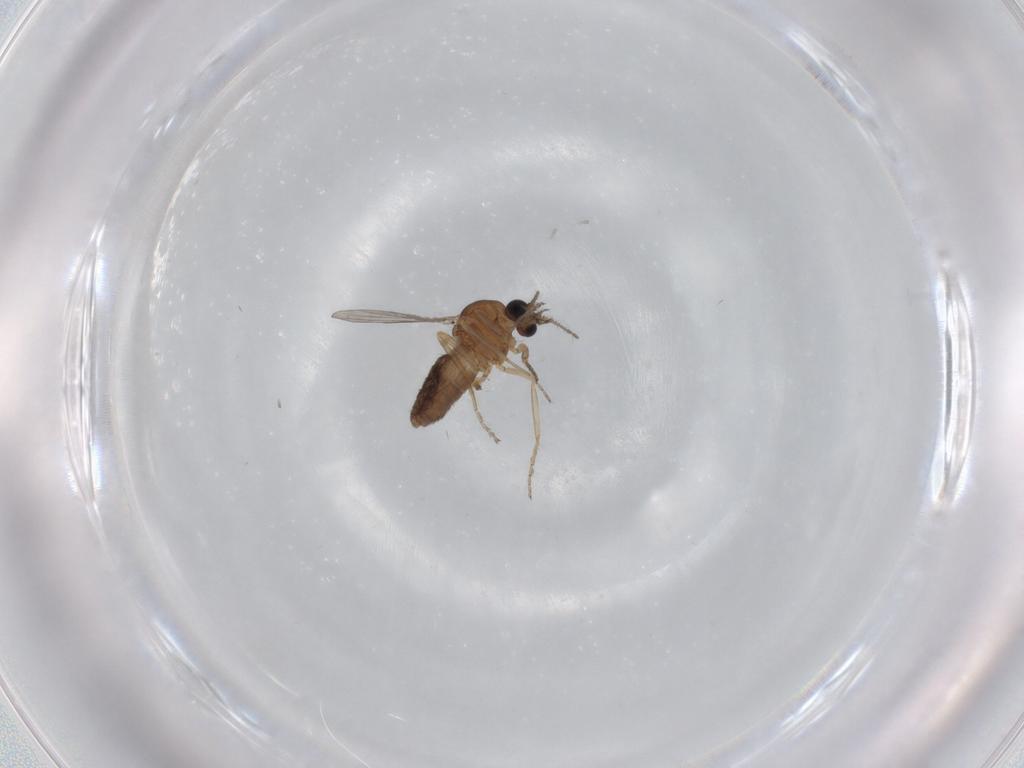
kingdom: Animalia
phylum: Arthropoda
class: Insecta
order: Diptera
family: Ceratopogonidae
